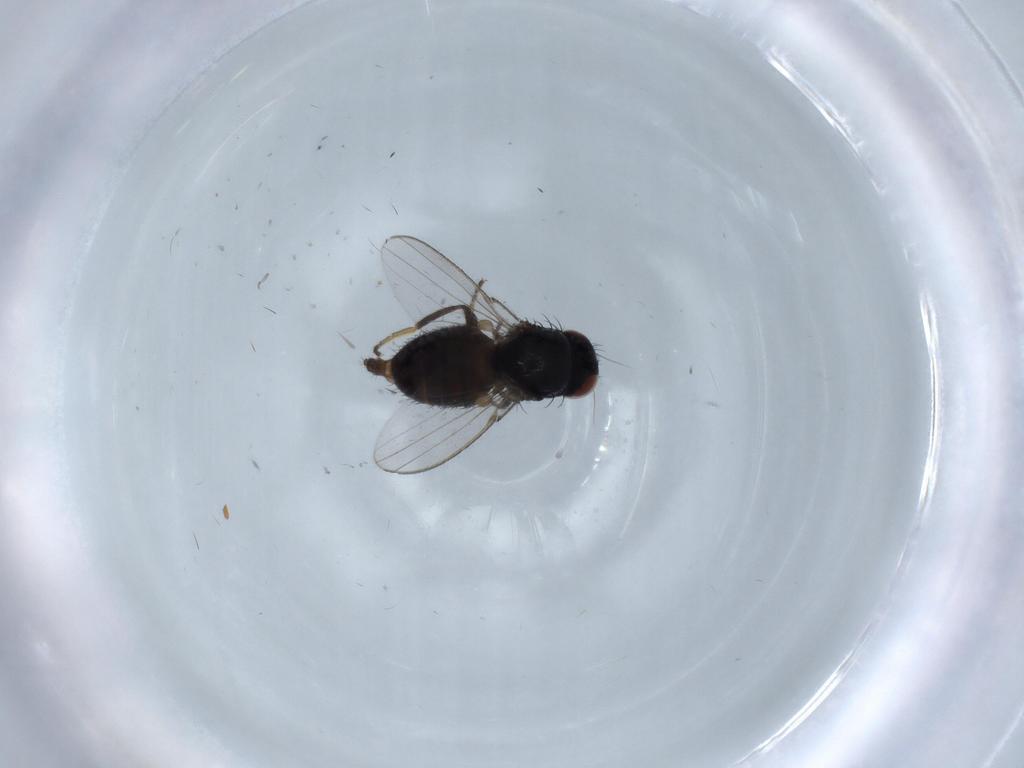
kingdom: Animalia
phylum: Arthropoda
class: Insecta
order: Diptera
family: Milichiidae
